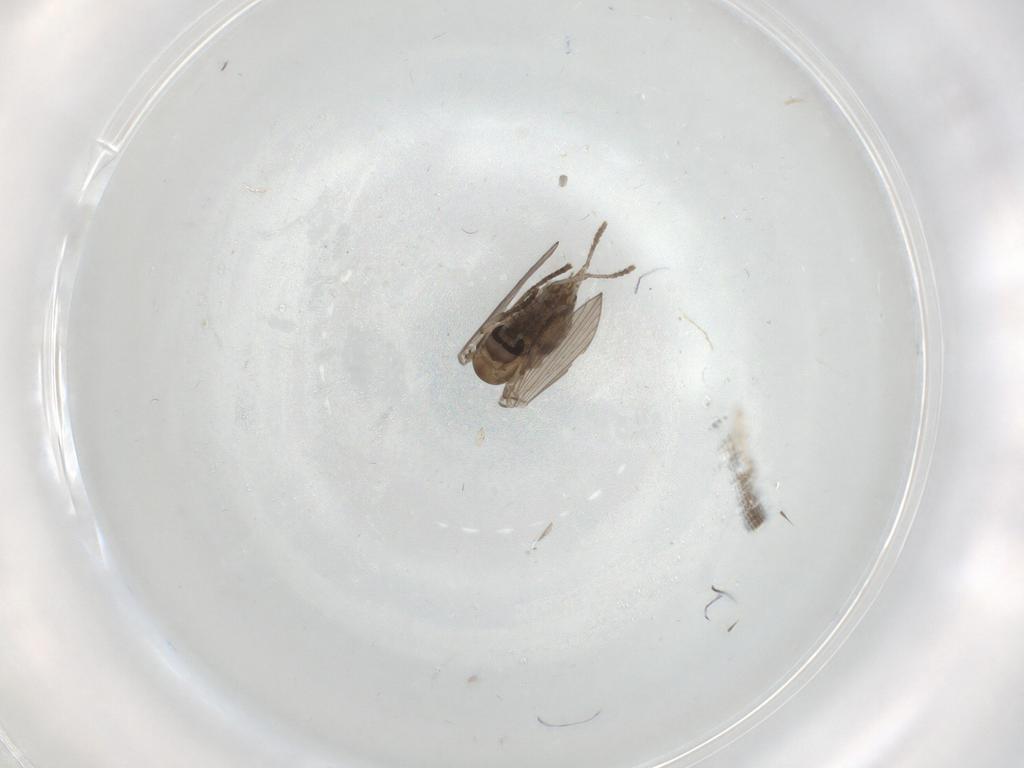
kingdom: Animalia
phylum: Arthropoda
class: Insecta
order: Diptera
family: Psychodidae
